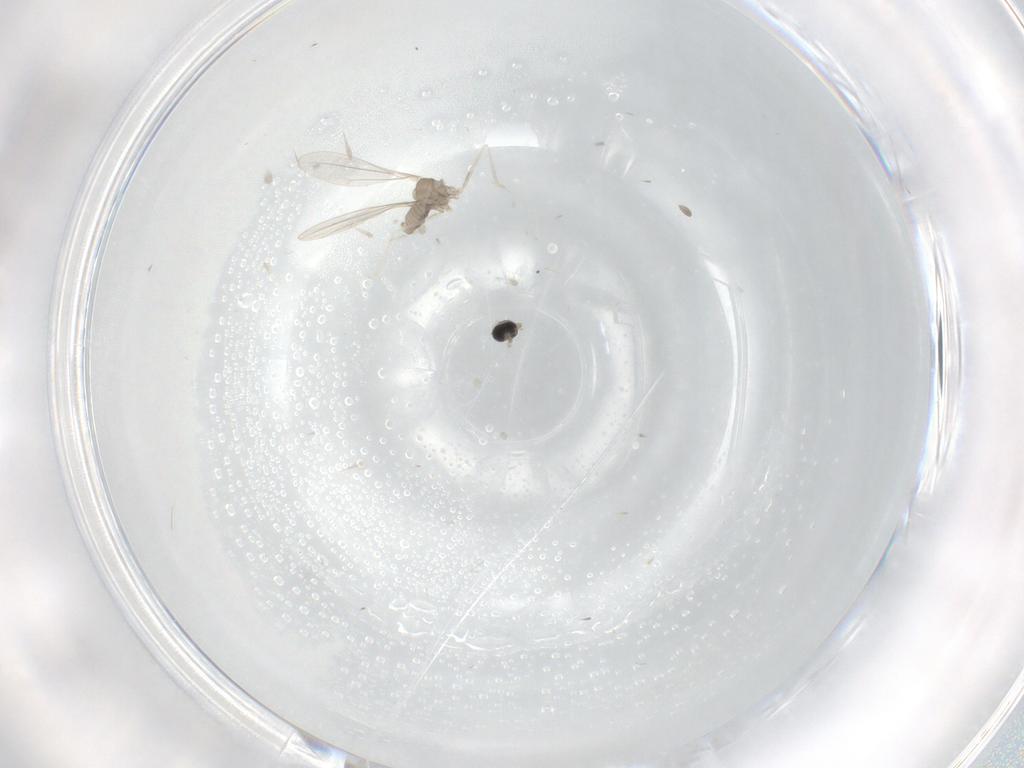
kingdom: Animalia
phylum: Arthropoda
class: Insecta
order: Diptera
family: Cecidomyiidae
